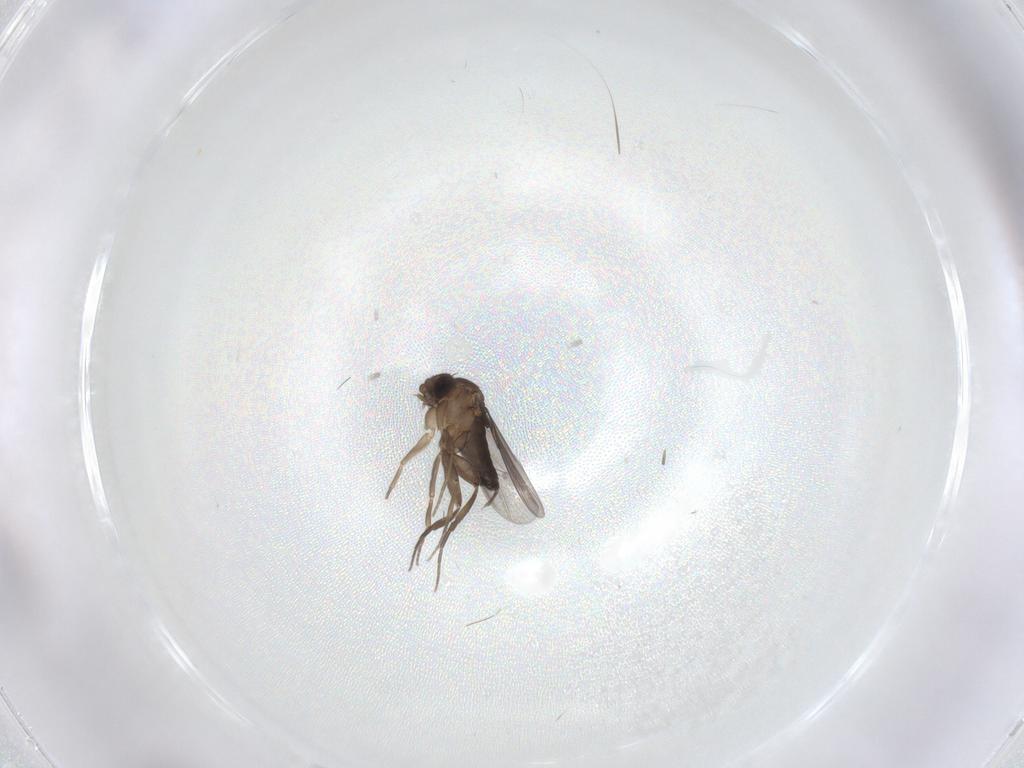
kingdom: Animalia
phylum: Arthropoda
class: Insecta
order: Diptera
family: Phoridae
